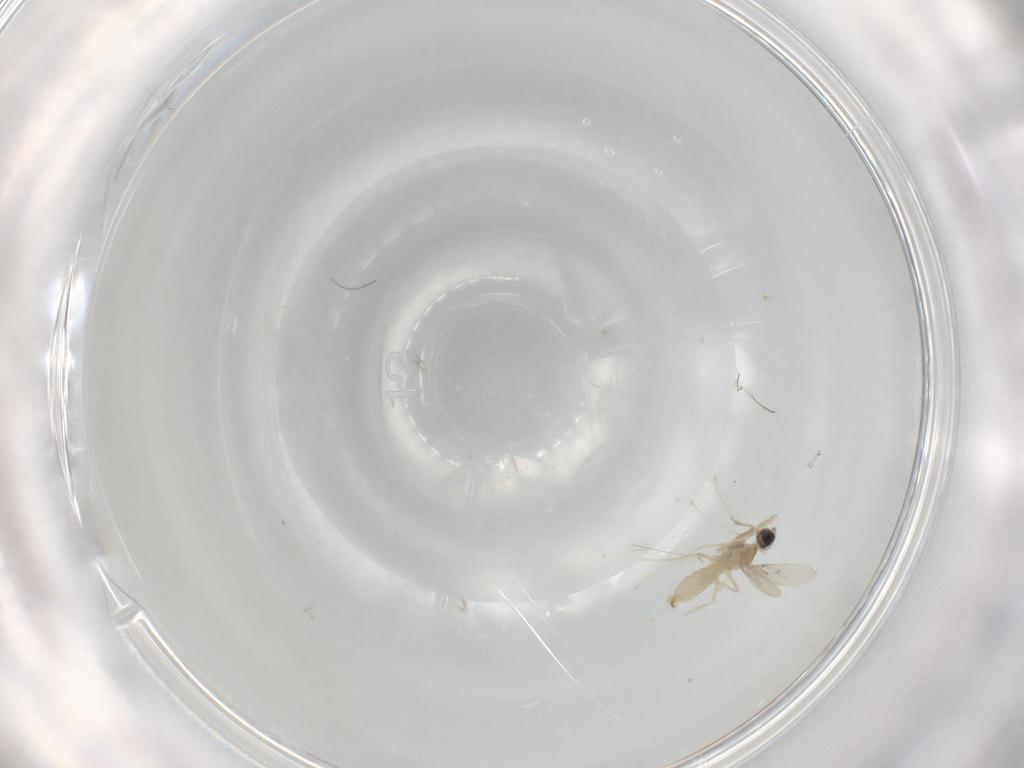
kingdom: Animalia
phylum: Arthropoda
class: Insecta
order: Diptera
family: Cecidomyiidae
